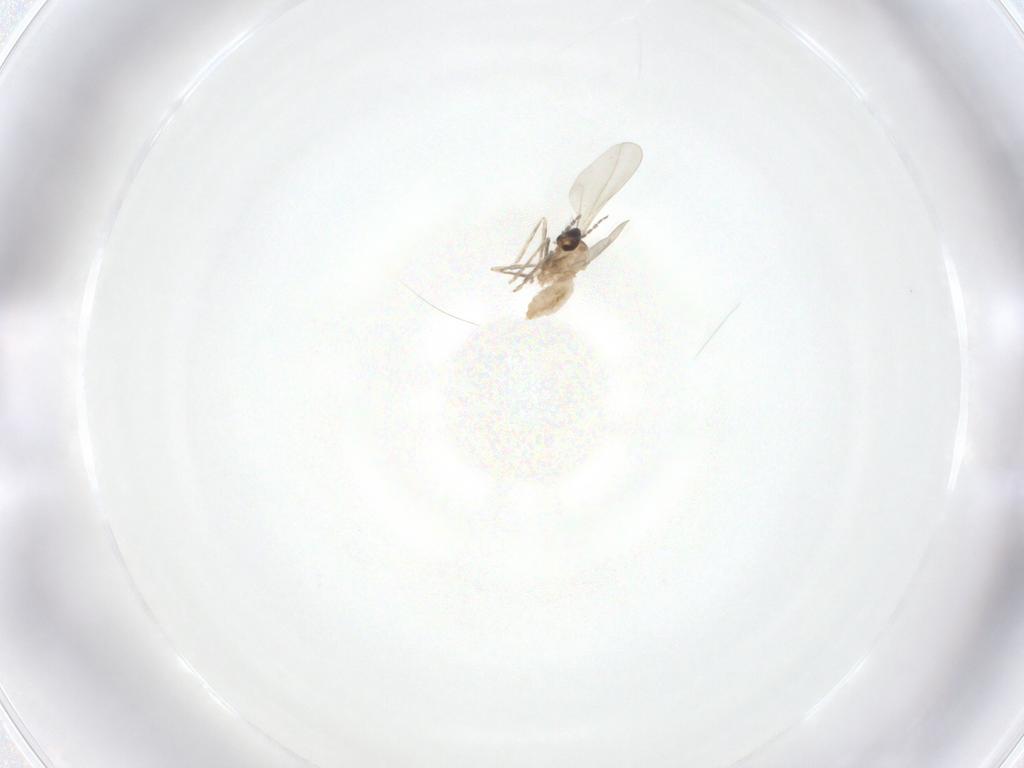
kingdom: Animalia
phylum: Arthropoda
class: Insecta
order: Diptera
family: Cecidomyiidae
